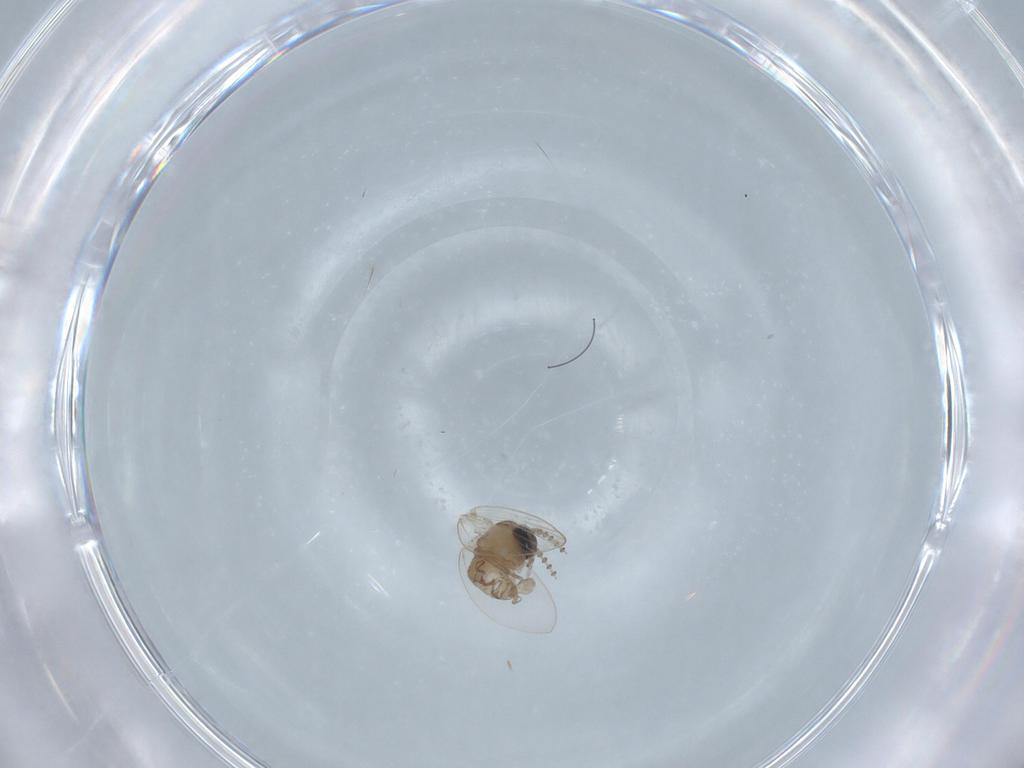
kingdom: Animalia
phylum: Arthropoda
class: Insecta
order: Diptera
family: Psychodidae
